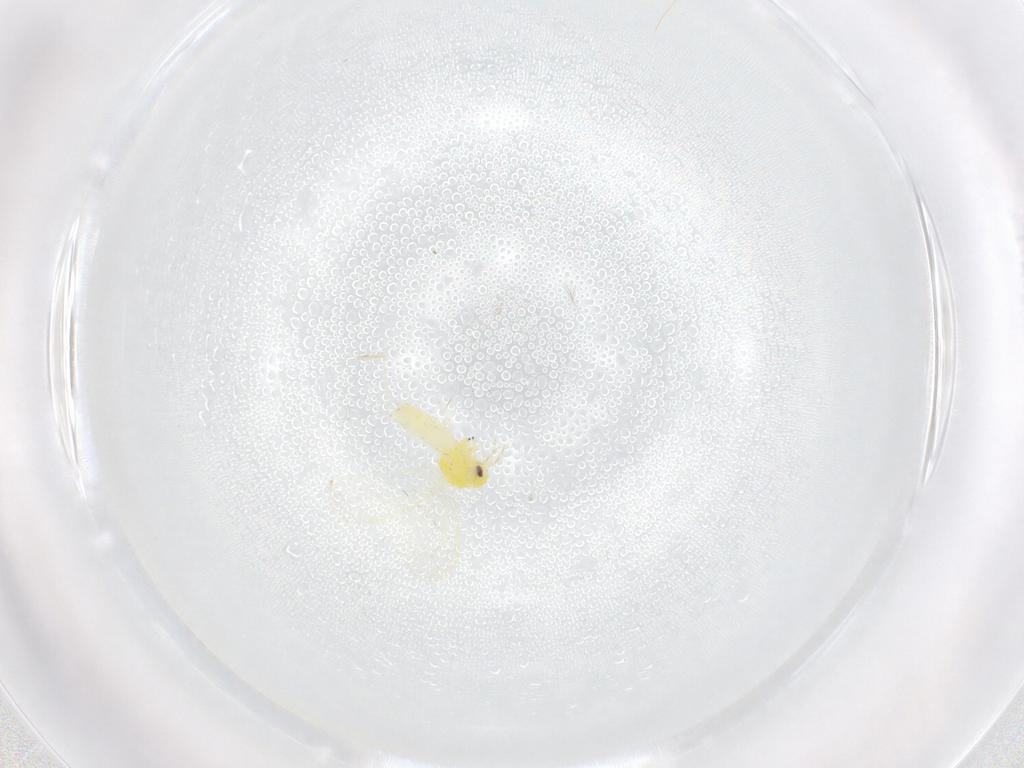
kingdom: Animalia
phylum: Arthropoda
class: Insecta
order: Hemiptera
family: Aleyrodidae
